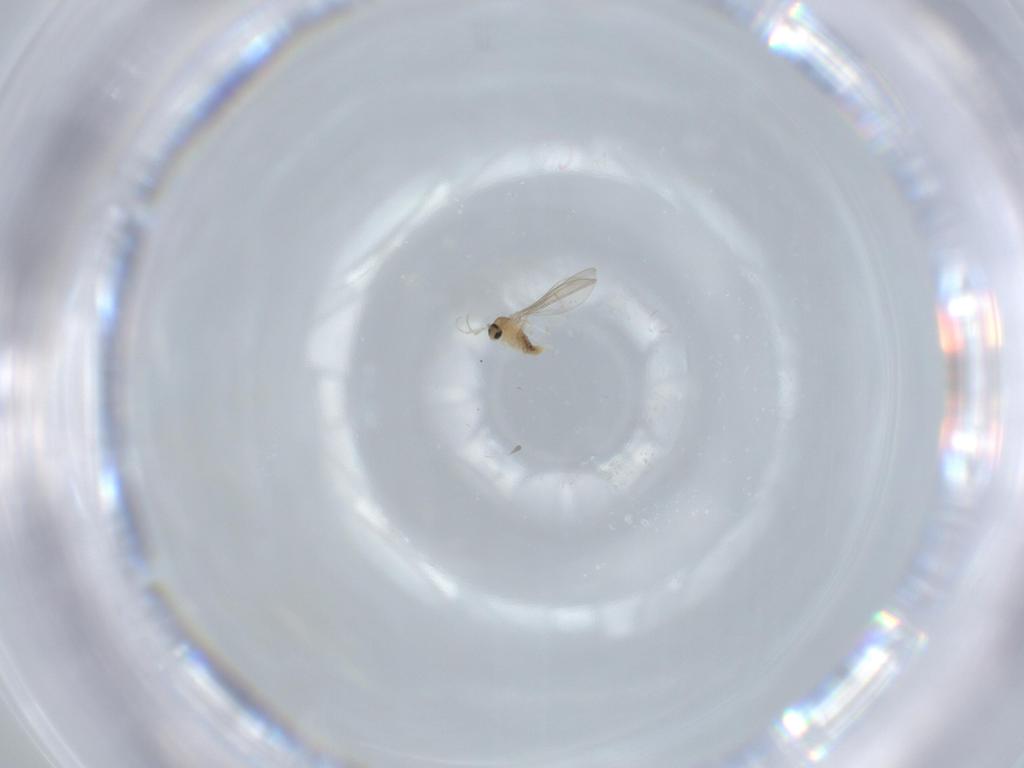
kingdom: Animalia
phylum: Arthropoda
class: Insecta
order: Diptera
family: Cecidomyiidae
